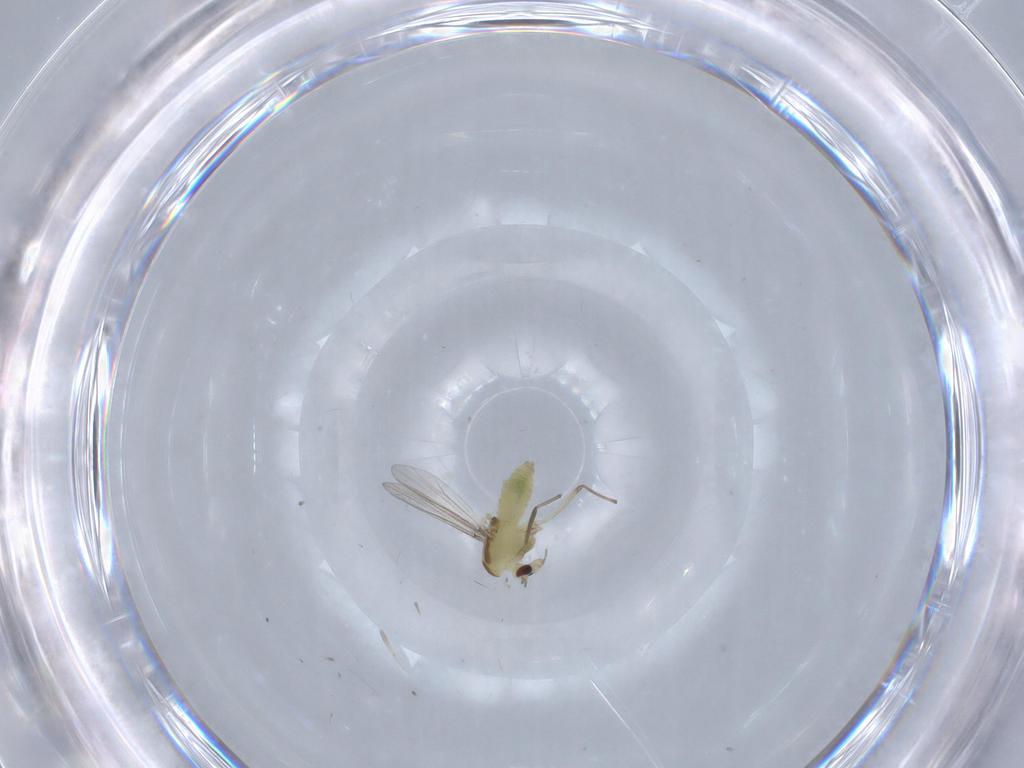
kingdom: Animalia
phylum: Arthropoda
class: Insecta
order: Diptera
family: Chironomidae
